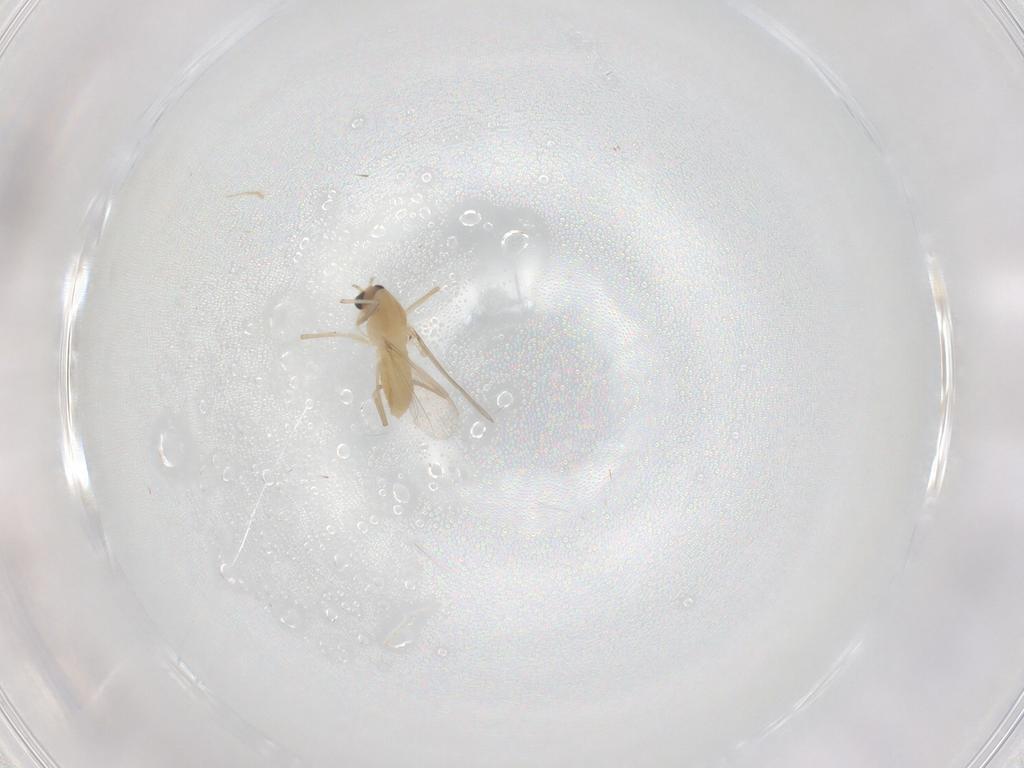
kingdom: Animalia
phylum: Arthropoda
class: Insecta
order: Diptera
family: Chironomidae
